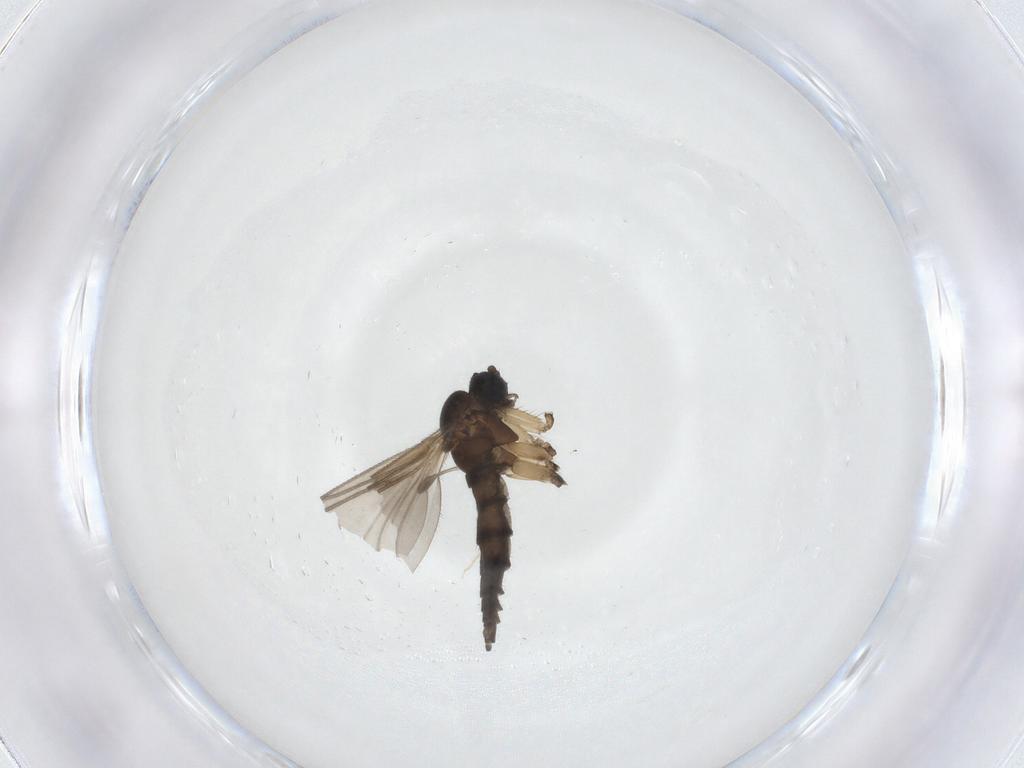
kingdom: Animalia
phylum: Arthropoda
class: Insecta
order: Diptera
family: Sciaridae
